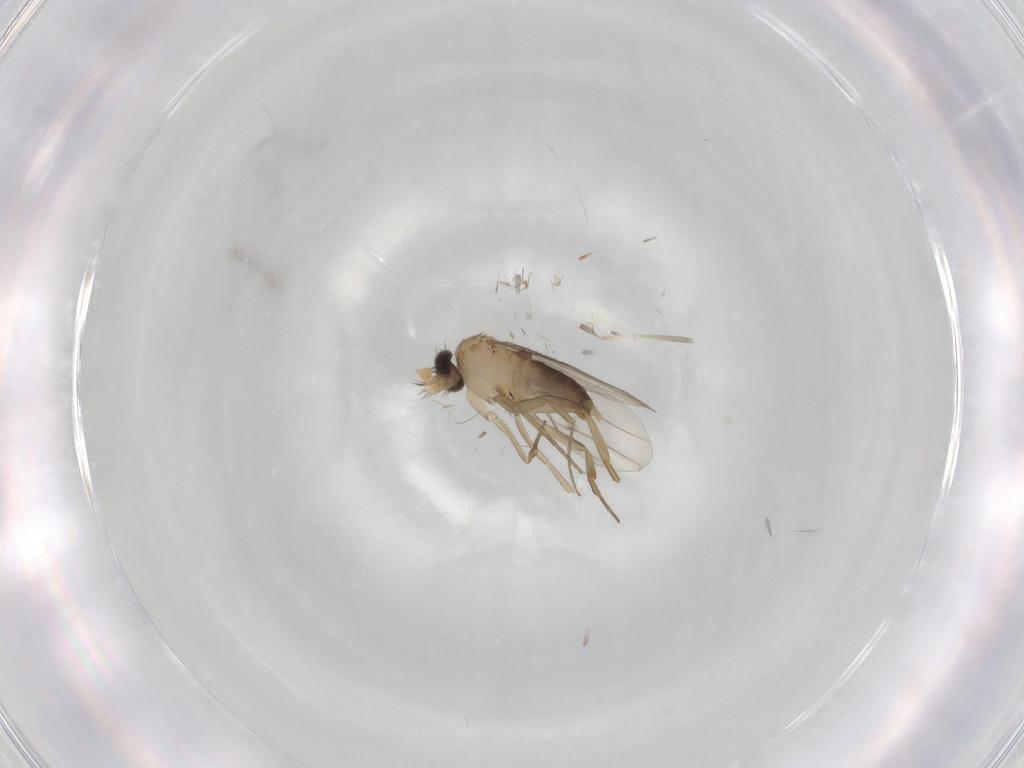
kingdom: Animalia
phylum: Arthropoda
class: Insecta
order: Diptera
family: Phoridae
